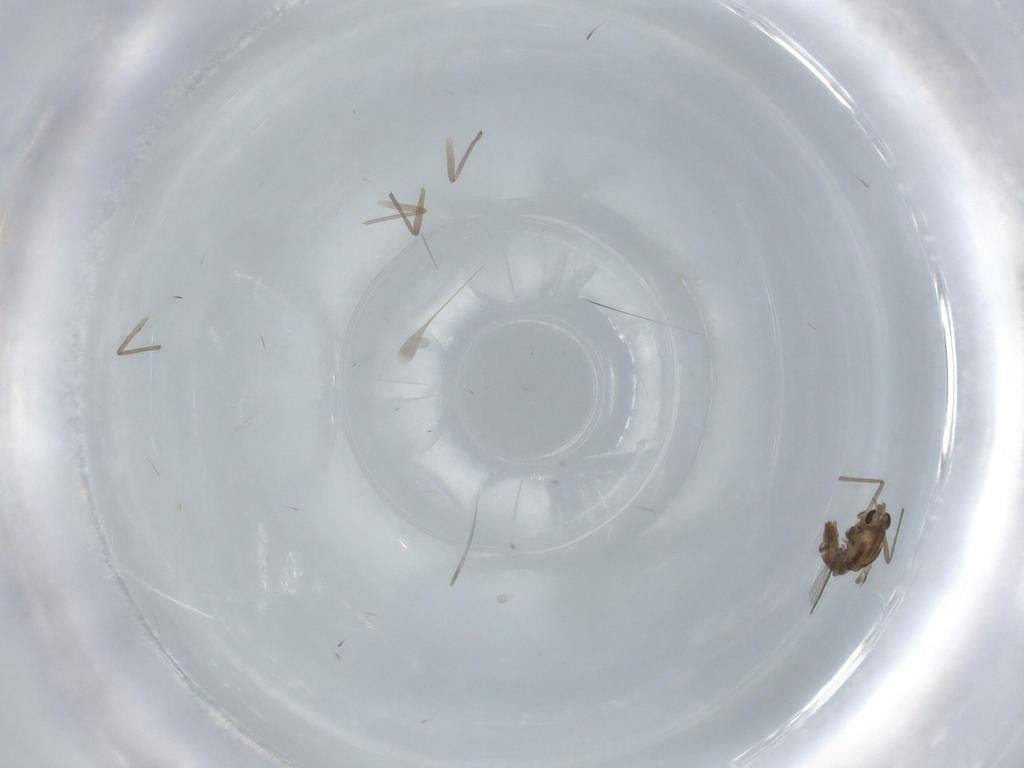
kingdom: Animalia
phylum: Arthropoda
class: Insecta
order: Diptera
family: Chironomidae
